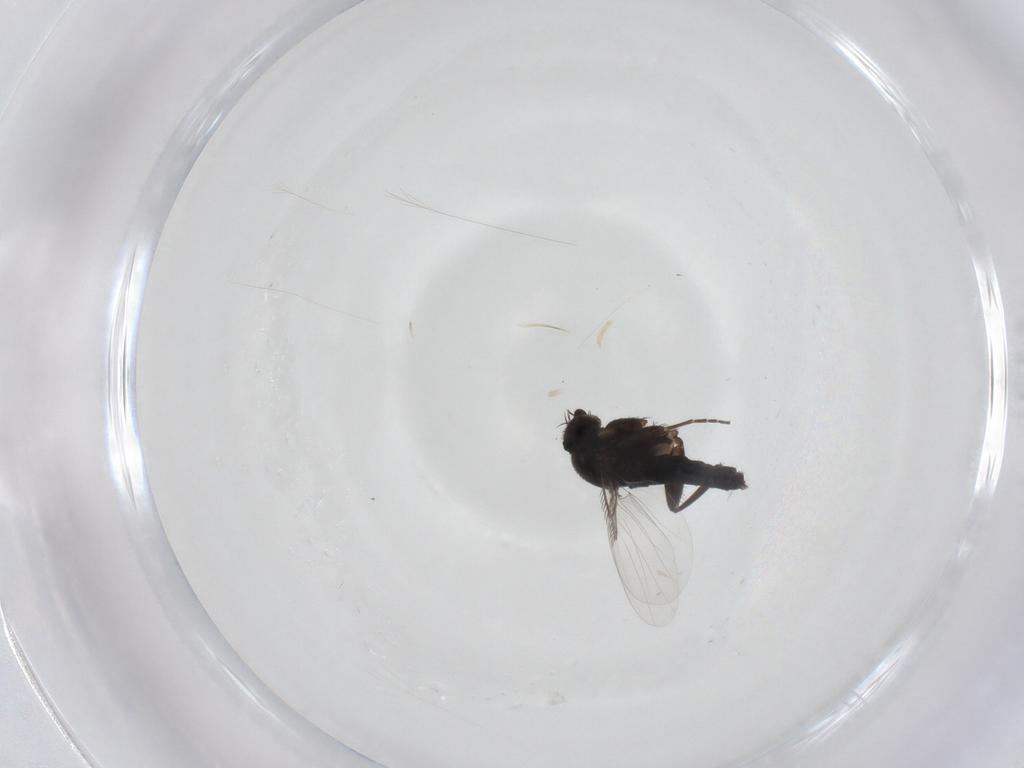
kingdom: Animalia
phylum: Arthropoda
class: Insecta
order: Diptera
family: Phoridae
